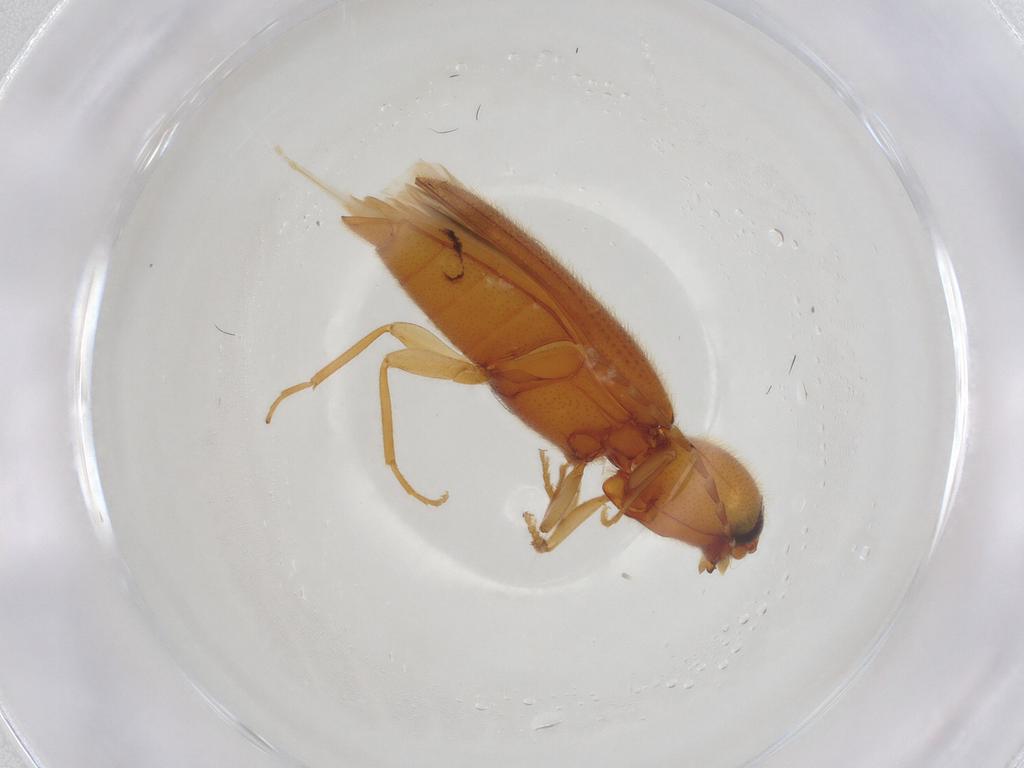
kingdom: Animalia
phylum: Arthropoda
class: Insecta
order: Coleoptera
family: Elateridae
